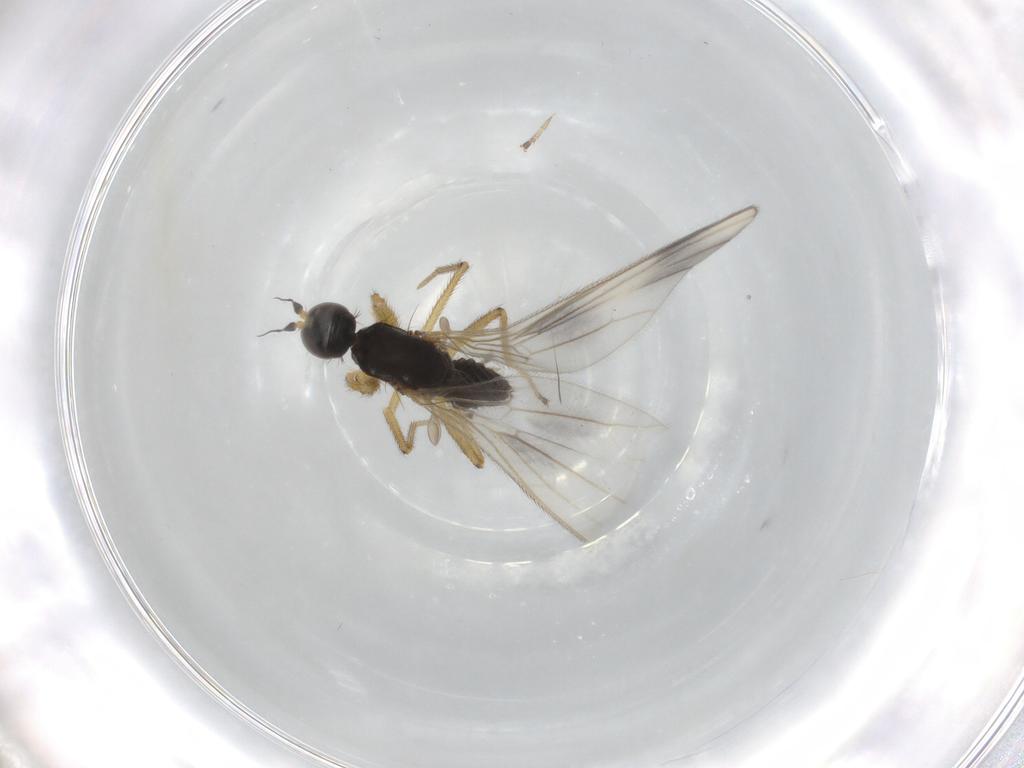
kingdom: Animalia
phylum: Arthropoda
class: Insecta
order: Diptera
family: Empididae
